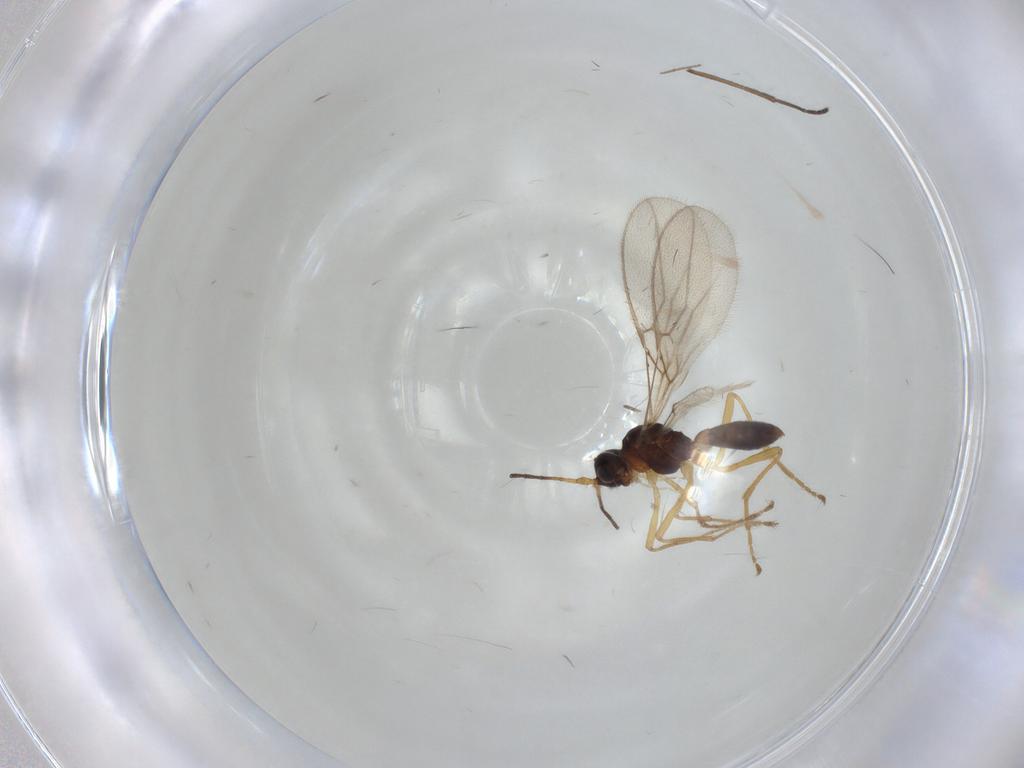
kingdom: Animalia
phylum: Arthropoda
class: Insecta
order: Hymenoptera
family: Braconidae
